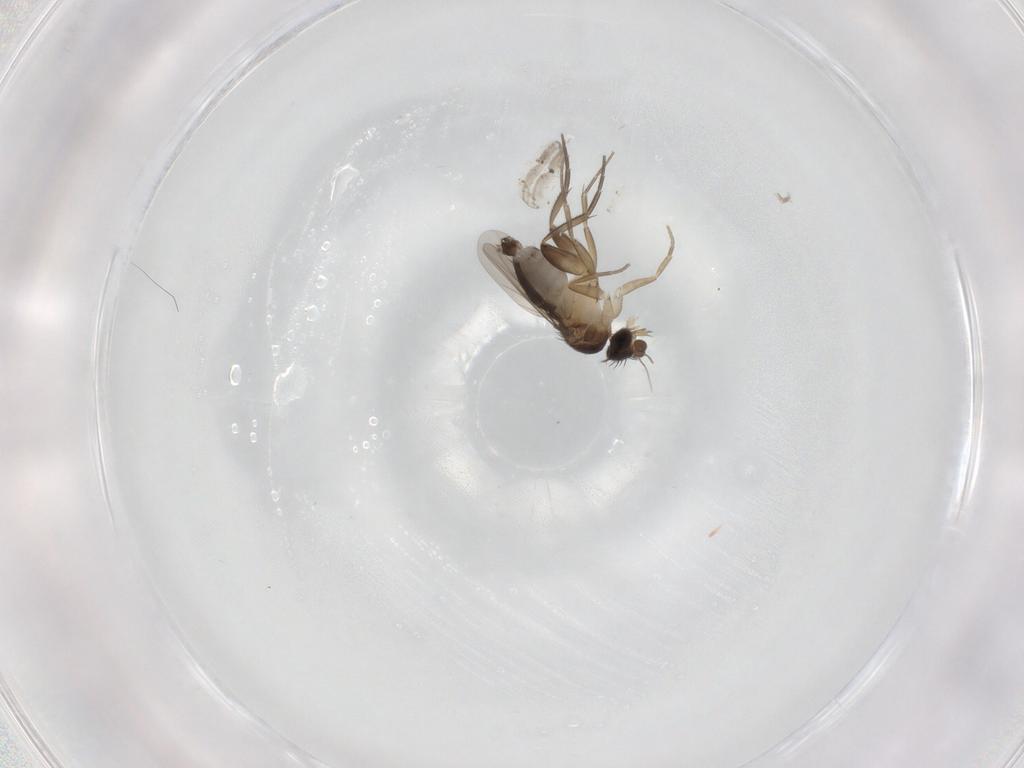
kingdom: Animalia
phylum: Arthropoda
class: Insecta
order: Diptera
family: Phoridae
